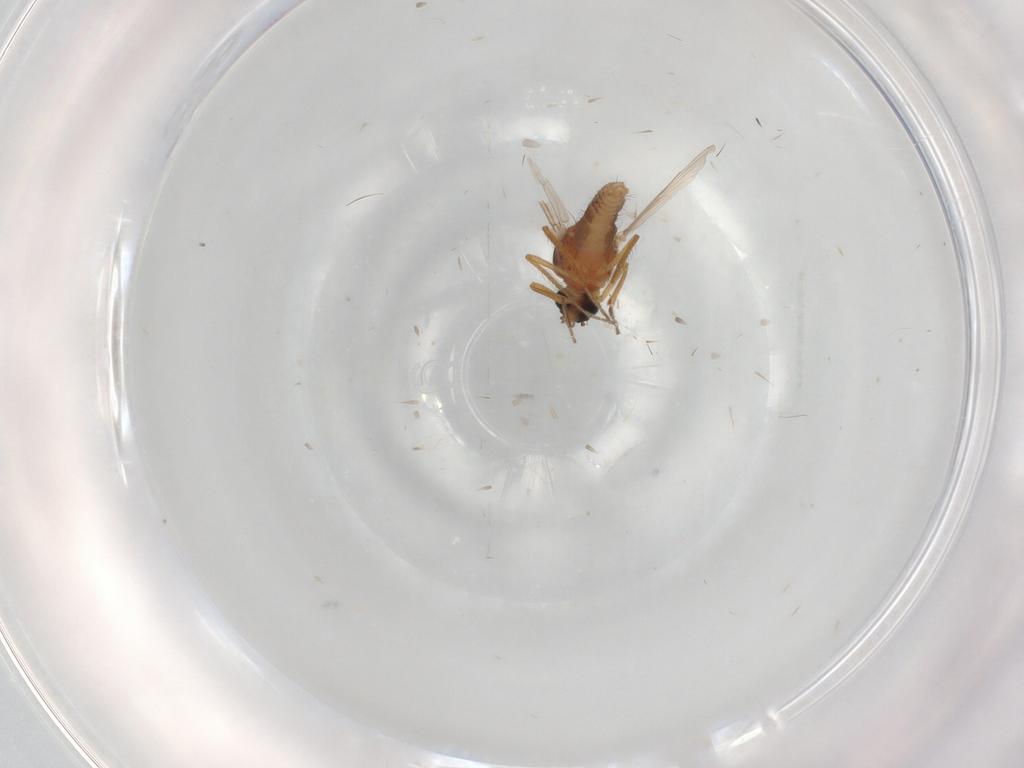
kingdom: Animalia
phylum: Arthropoda
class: Insecta
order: Diptera
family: Ceratopogonidae
